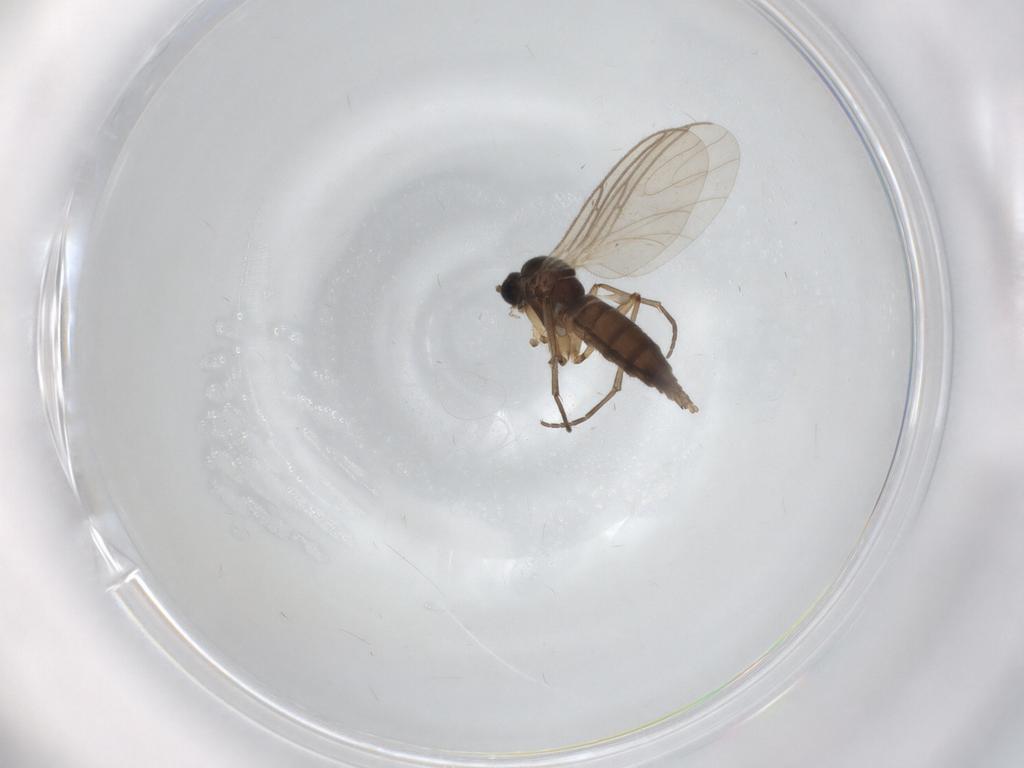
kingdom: Animalia
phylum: Arthropoda
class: Insecta
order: Diptera
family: Sciaridae
